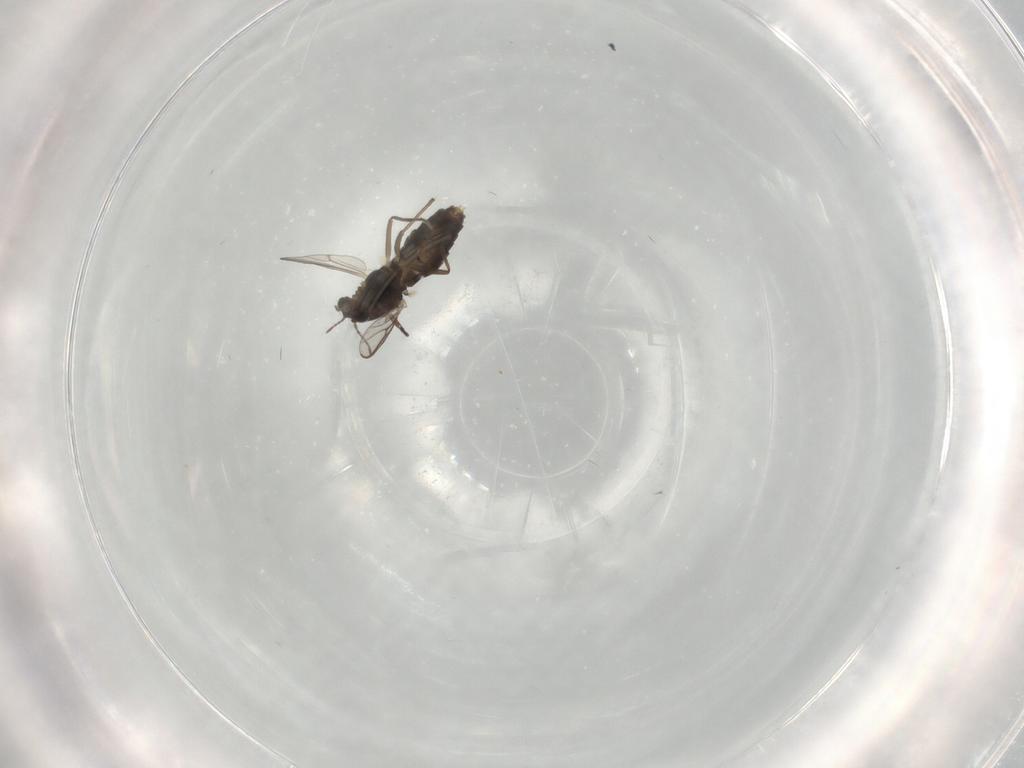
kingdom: Animalia
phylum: Arthropoda
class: Insecta
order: Diptera
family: Chironomidae
